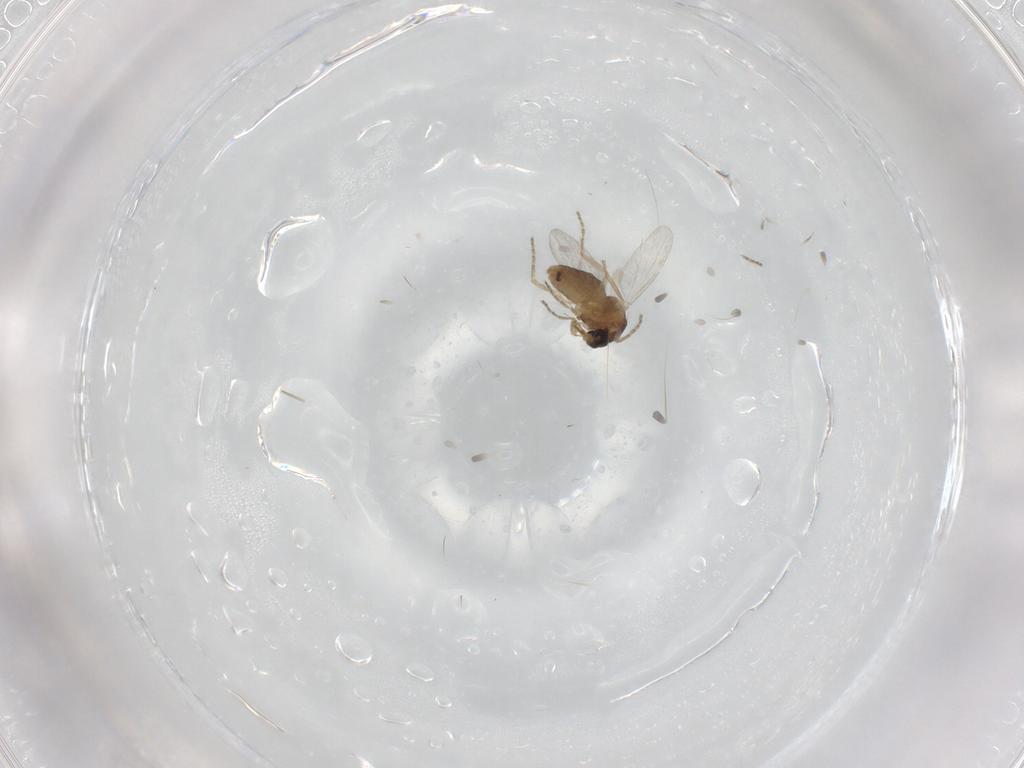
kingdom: Animalia
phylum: Arthropoda
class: Insecta
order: Diptera
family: Ceratopogonidae
